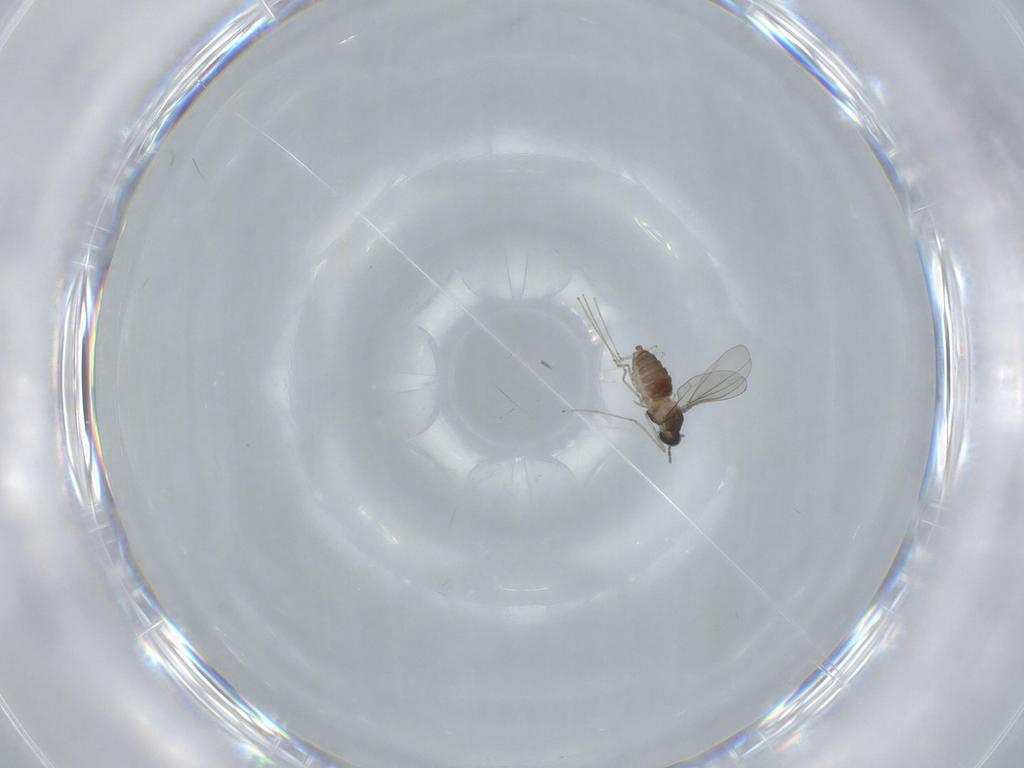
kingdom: Animalia
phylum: Arthropoda
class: Insecta
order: Diptera
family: Cecidomyiidae
